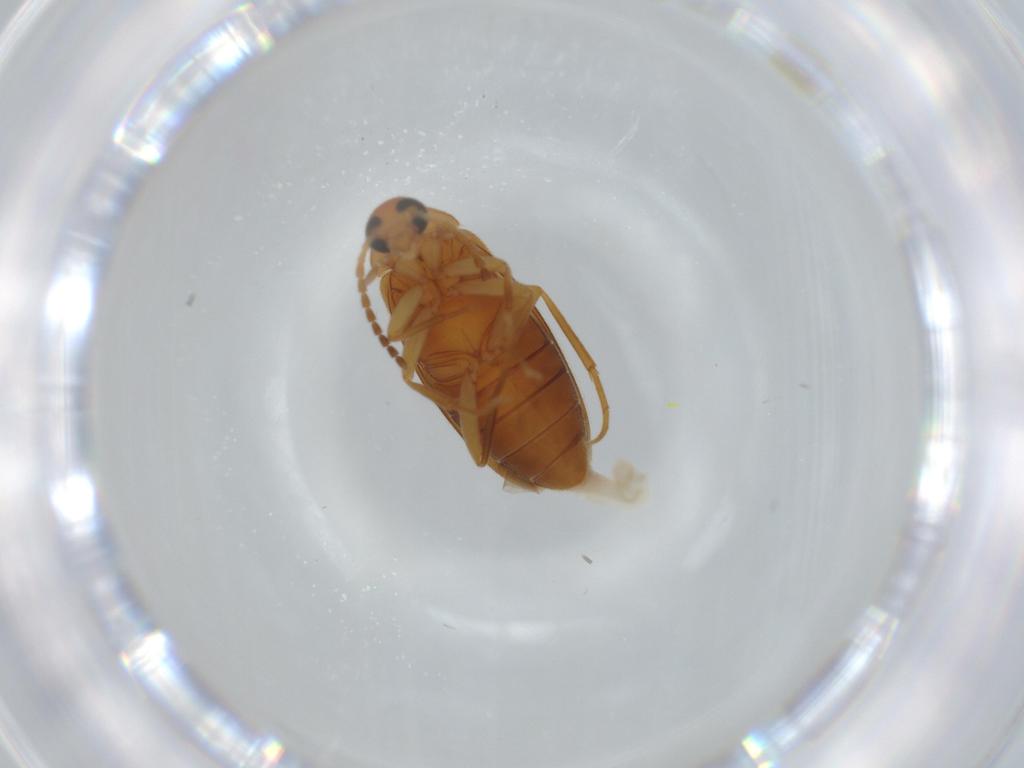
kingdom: Animalia
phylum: Arthropoda
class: Insecta
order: Coleoptera
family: Scraptiidae
